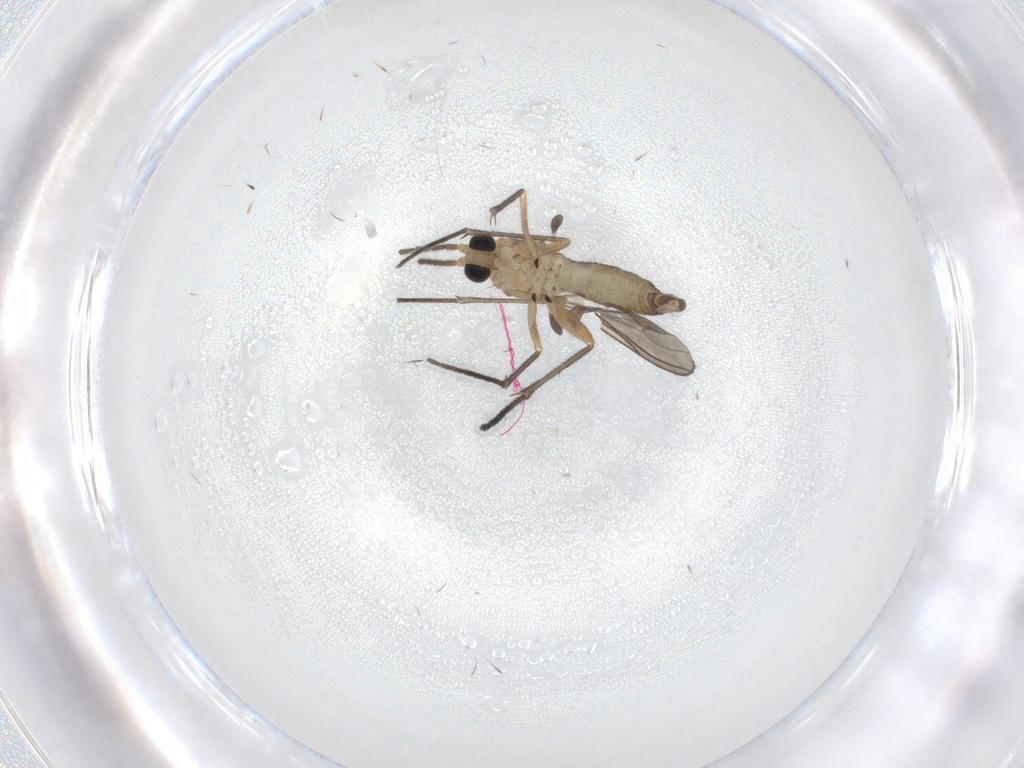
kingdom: Animalia
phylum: Arthropoda
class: Insecta
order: Diptera
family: Sciaridae
